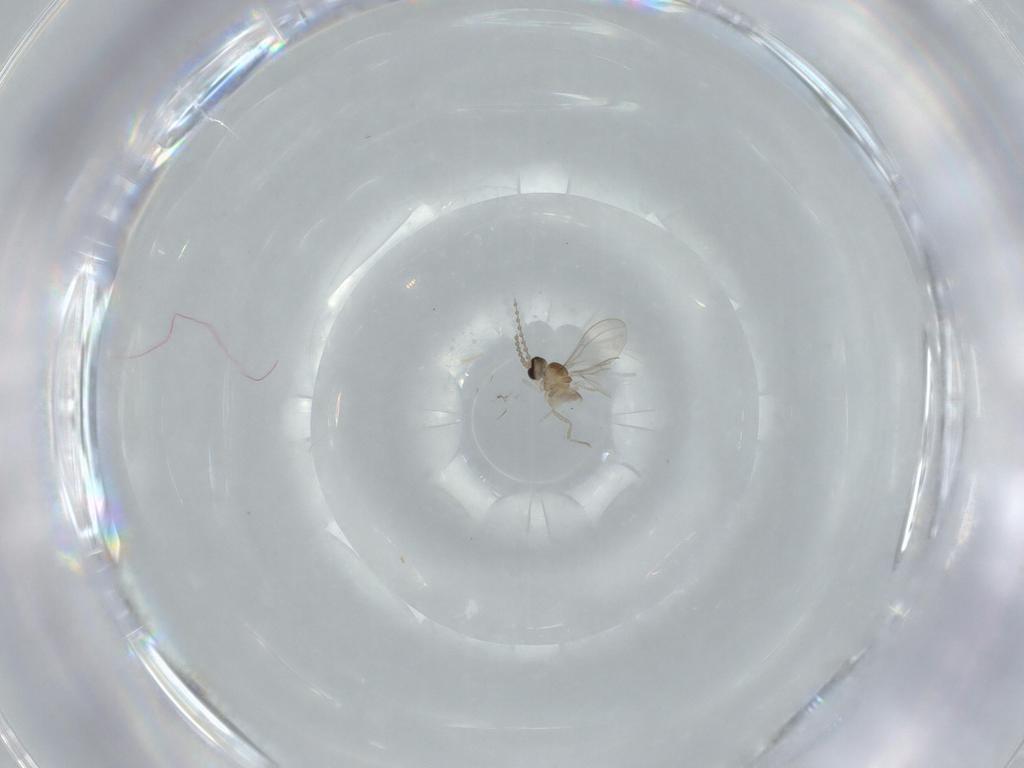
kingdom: Animalia
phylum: Arthropoda
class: Insecta
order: Diptera
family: Cecidomyiidae
